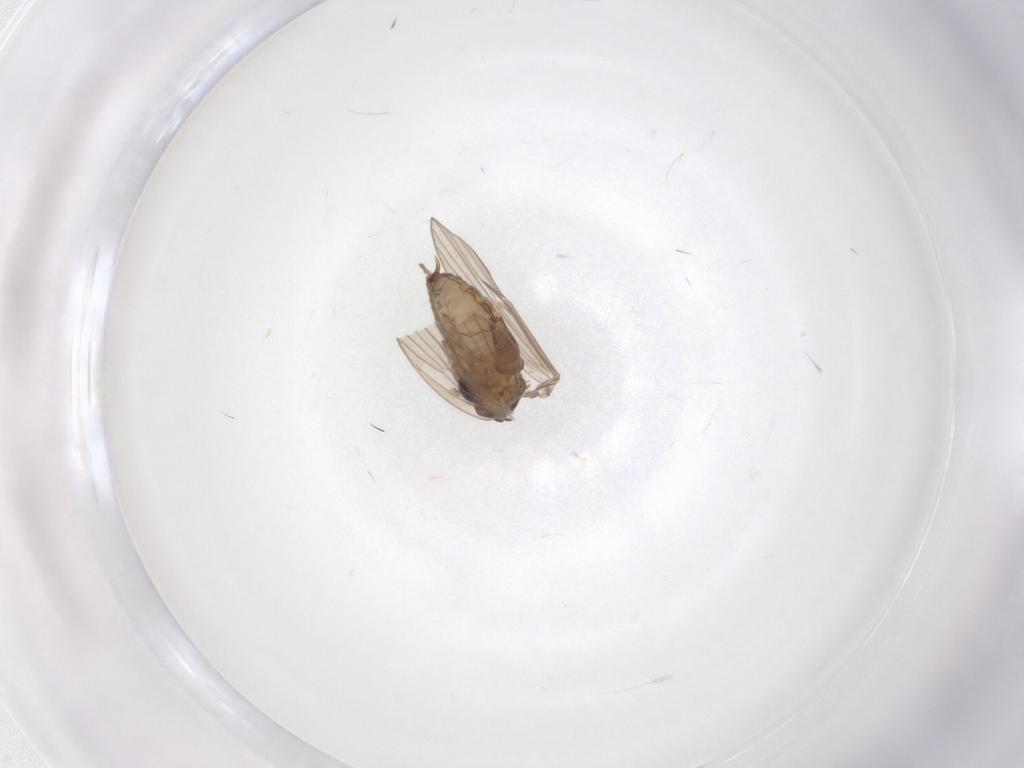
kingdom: Animalia
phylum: Arthropoda
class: Insecta
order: Diptera
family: Psychodidae
